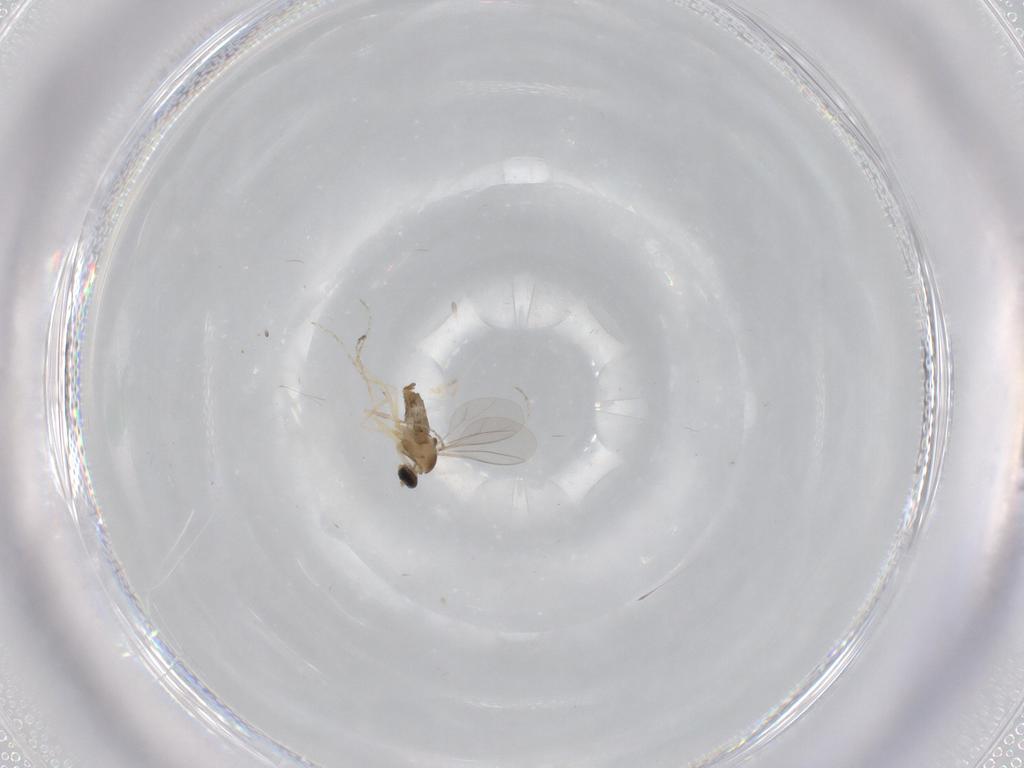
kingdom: Animalia
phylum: Arthropoda
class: Insecta
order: Diptera
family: Cecidomyiidae
